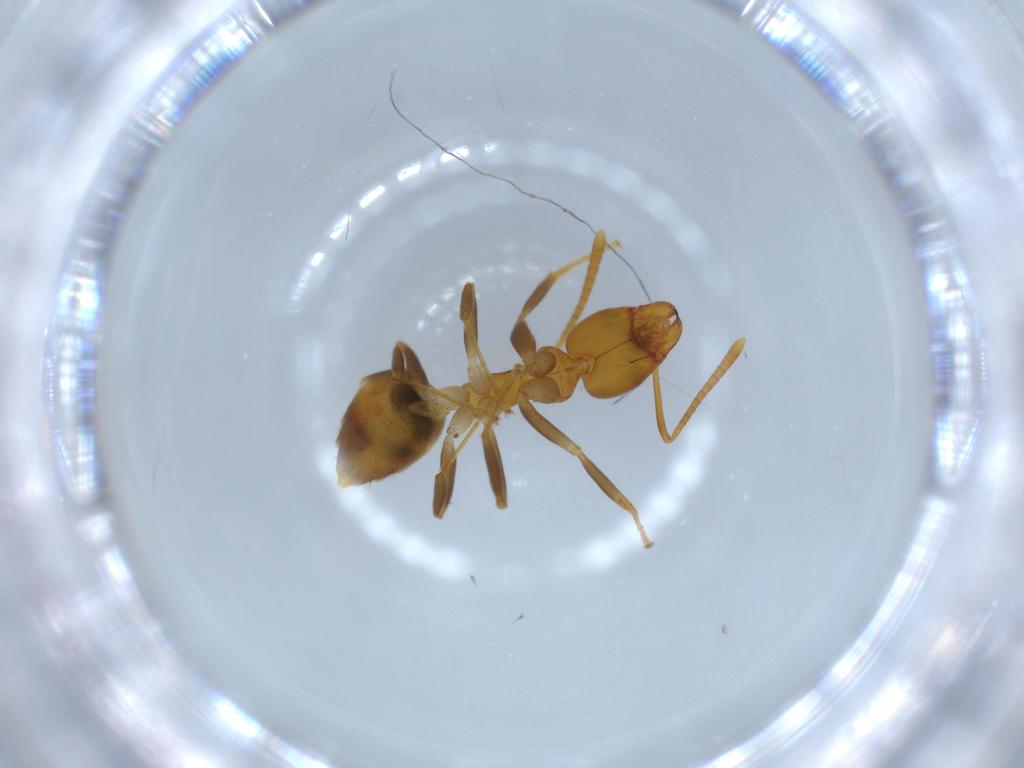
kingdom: Animalia
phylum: Arthropoda
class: Insecta
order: Hymenoptera
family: Formicidae
